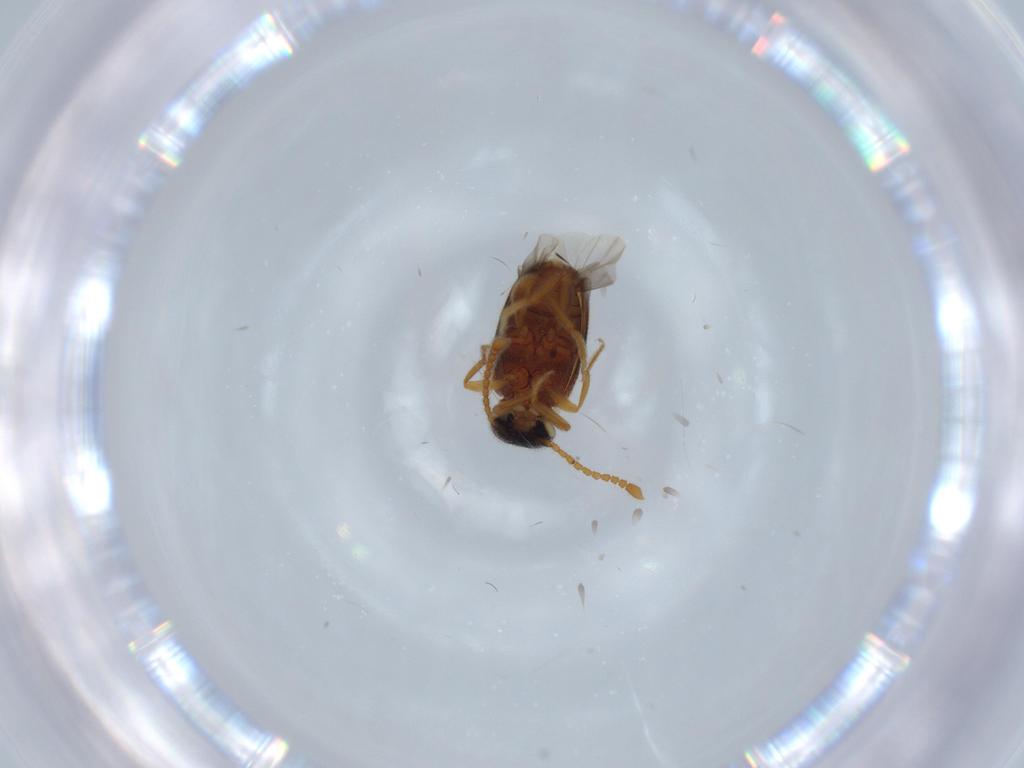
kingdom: Animalia
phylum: Arthropoda
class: Insecta
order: Coleoptera
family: Aderidae
